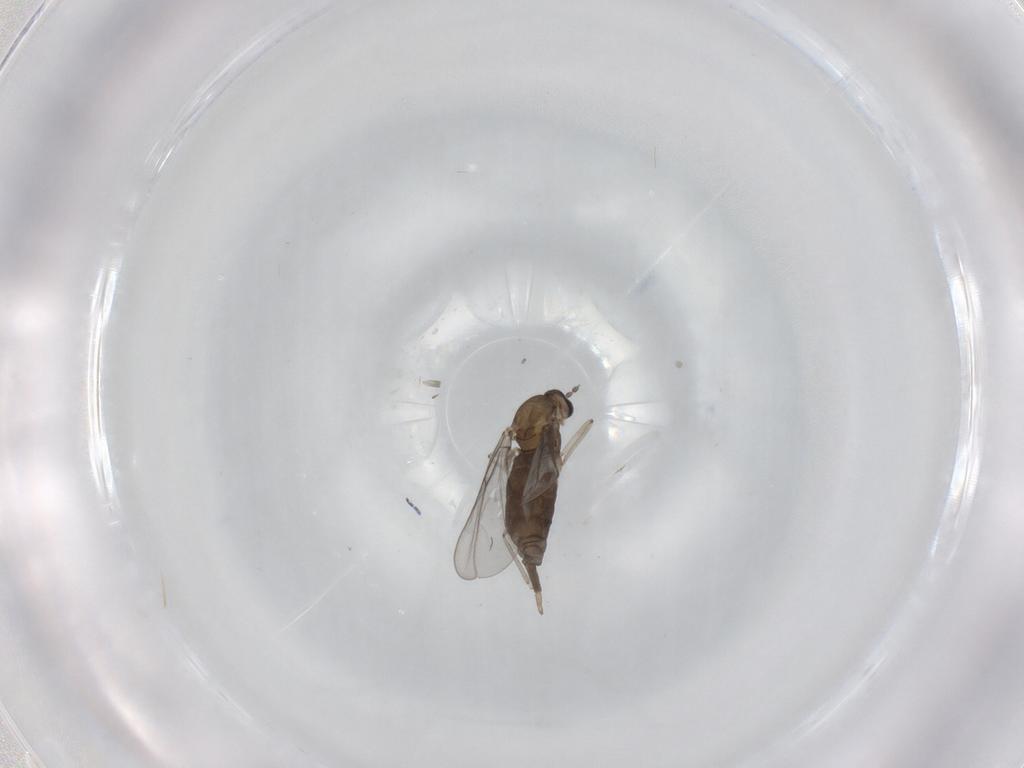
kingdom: Animalia
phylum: Arthropoda
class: Insecta
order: Diptera
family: Cecidomyiidae
